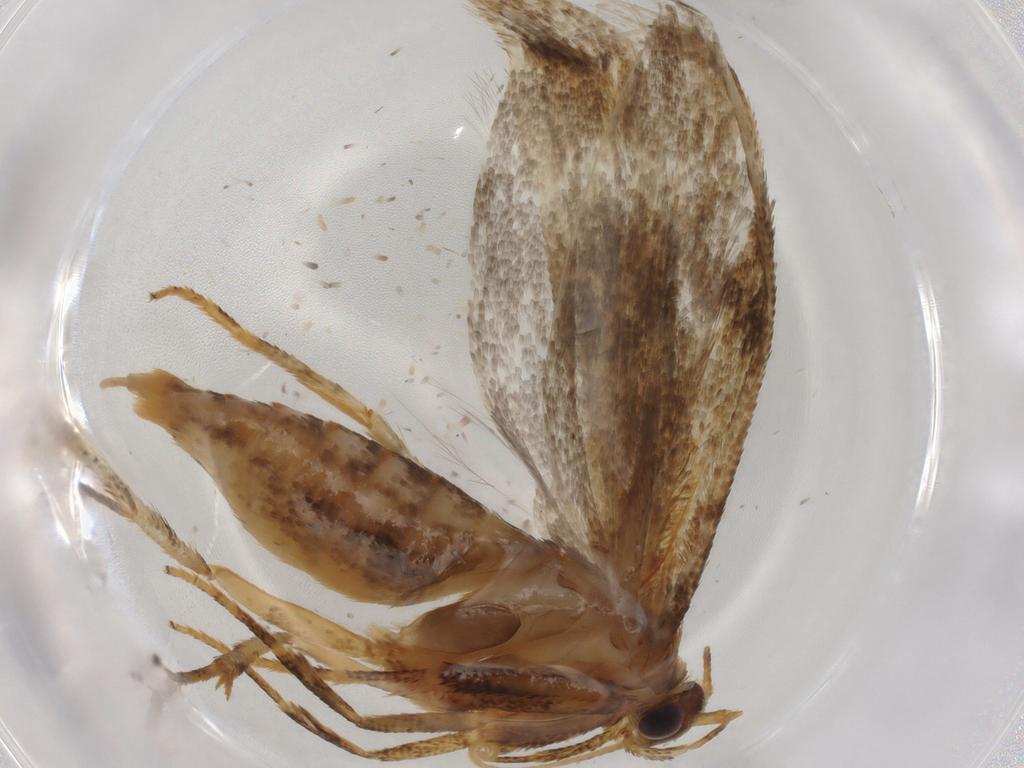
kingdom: Animalia
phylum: Arthropoda
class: Insecta
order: Lepidoptera
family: Blastobasidae
